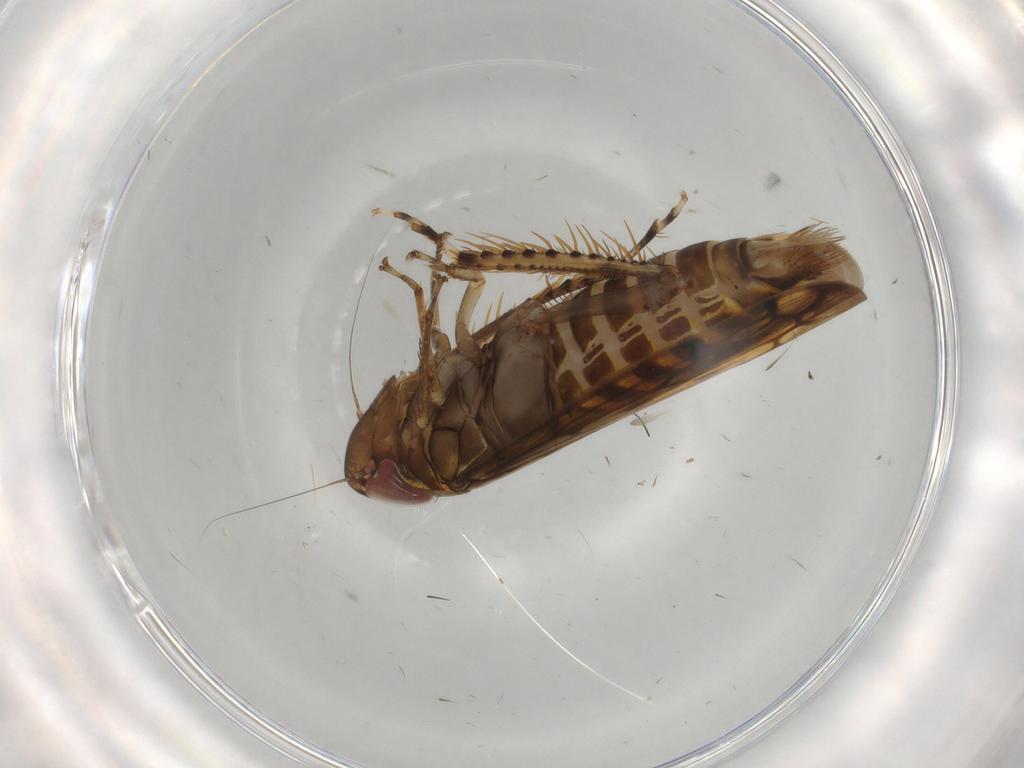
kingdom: Animalia
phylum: Arthropoda
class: Insecta
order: Hemiptera
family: Cicadellidae
